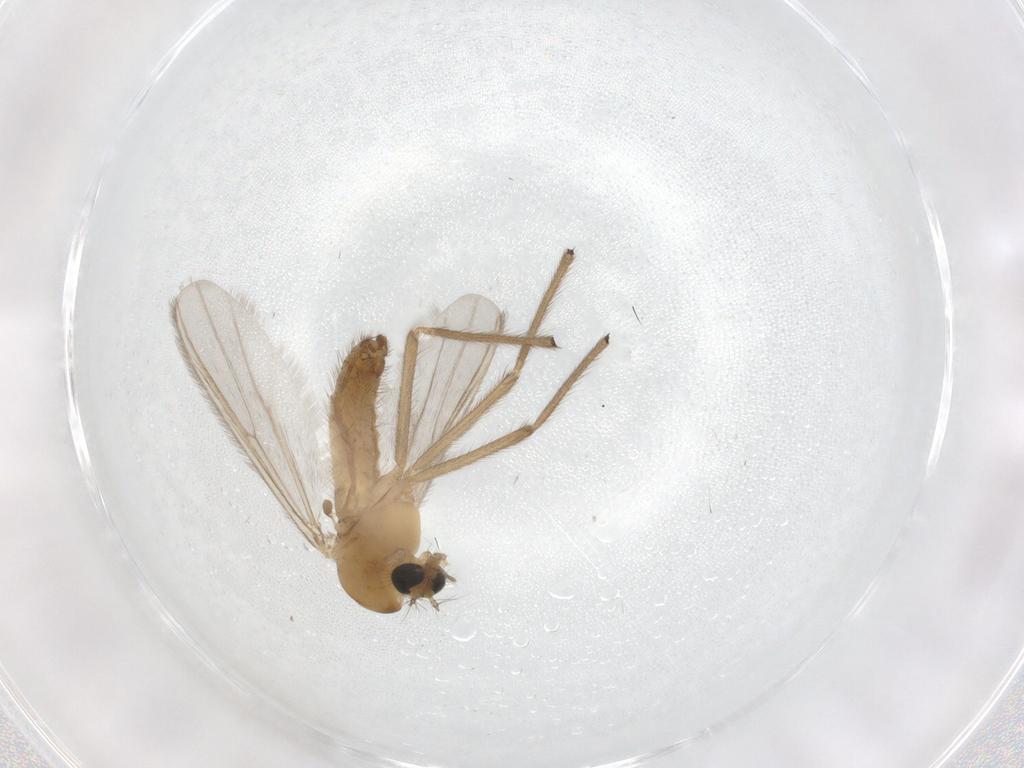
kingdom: Animalia
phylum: Arthropoda
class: Insecta
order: Diptera
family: Chironomidae
